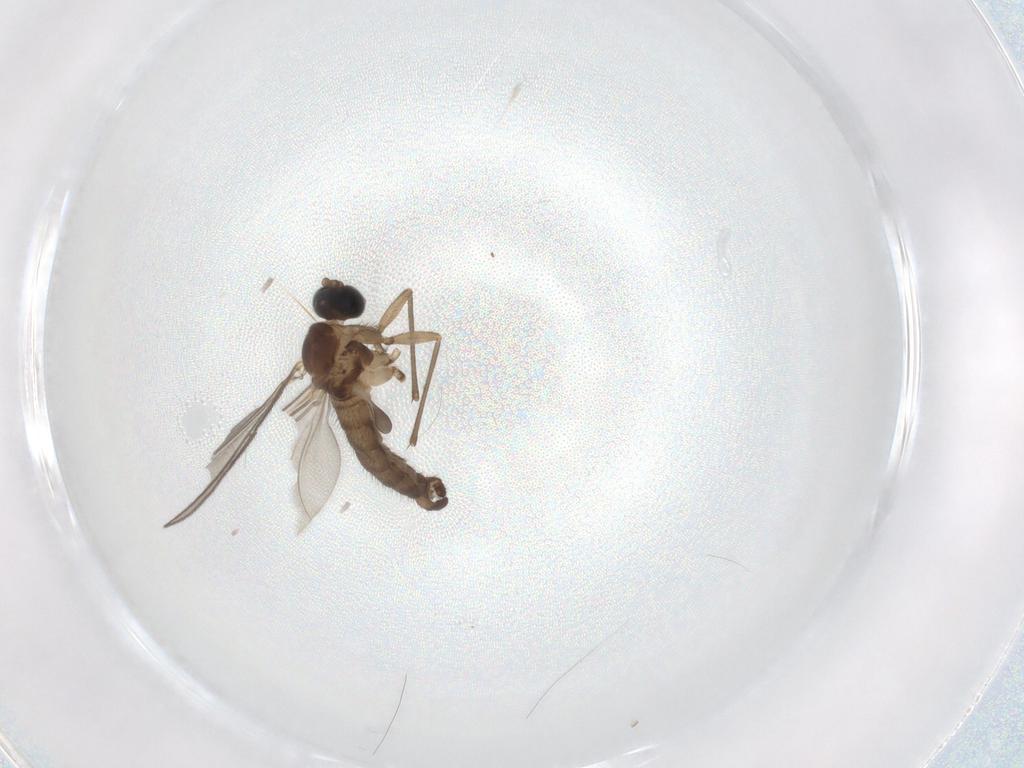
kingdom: Animalia
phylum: Arthropoda
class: Insecta
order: Diptera
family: Sciaridae
